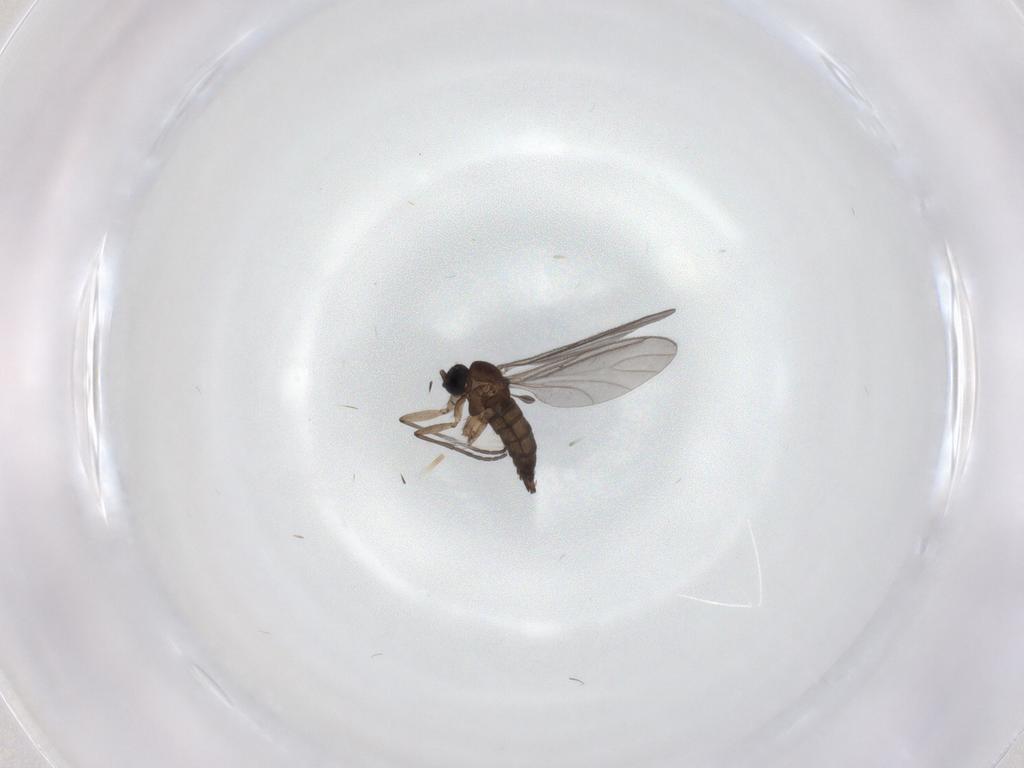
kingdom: Animalia
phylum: Arthropoda
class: Insecta
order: Diptera
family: Sciaridae
